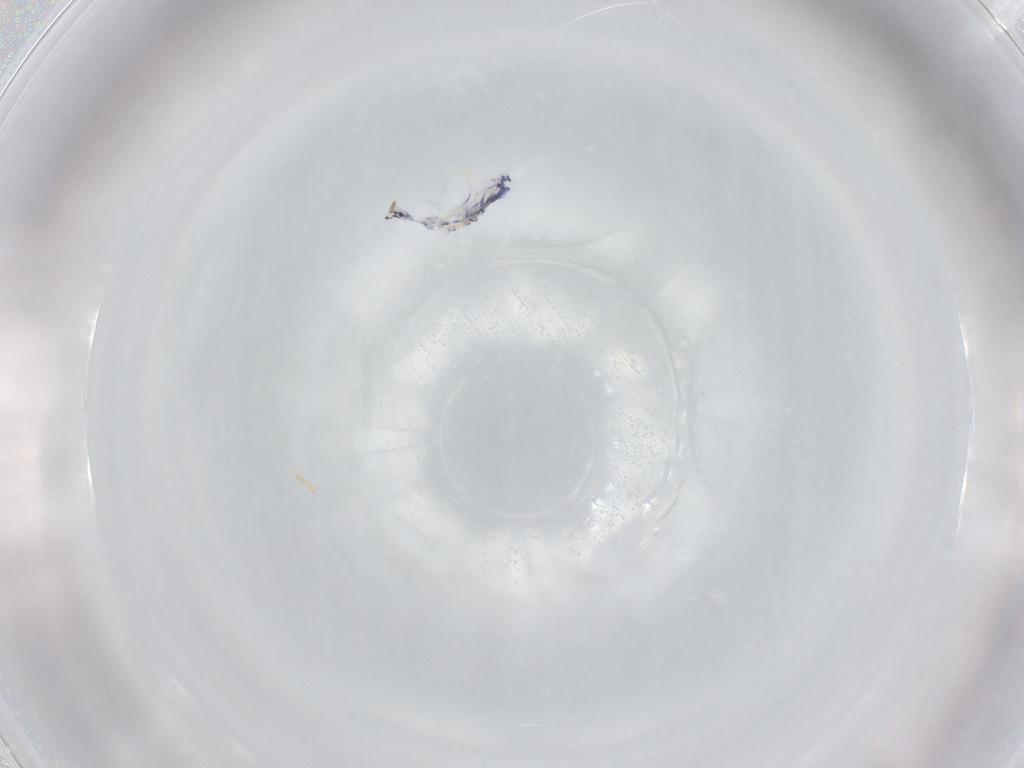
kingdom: Animalia
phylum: Arthropoda
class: Collembola
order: Entomobryomorpha
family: Entomobryidae
